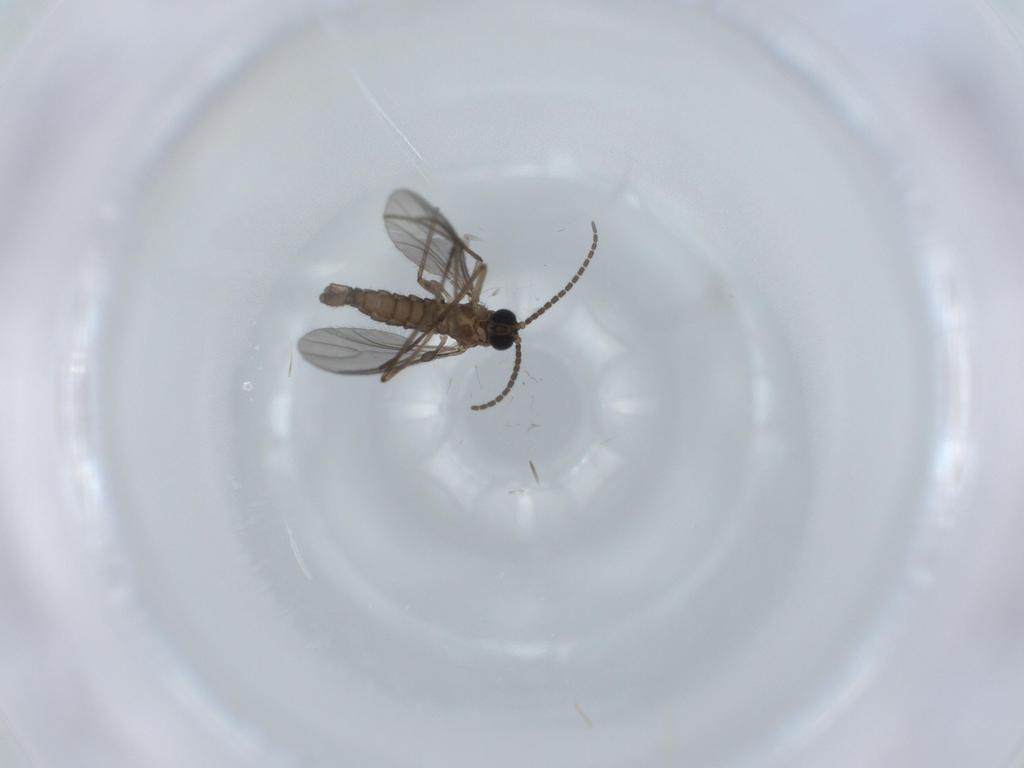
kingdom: Animalia
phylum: Arthropoda
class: Insecta
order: Diptera
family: Sciaridae
